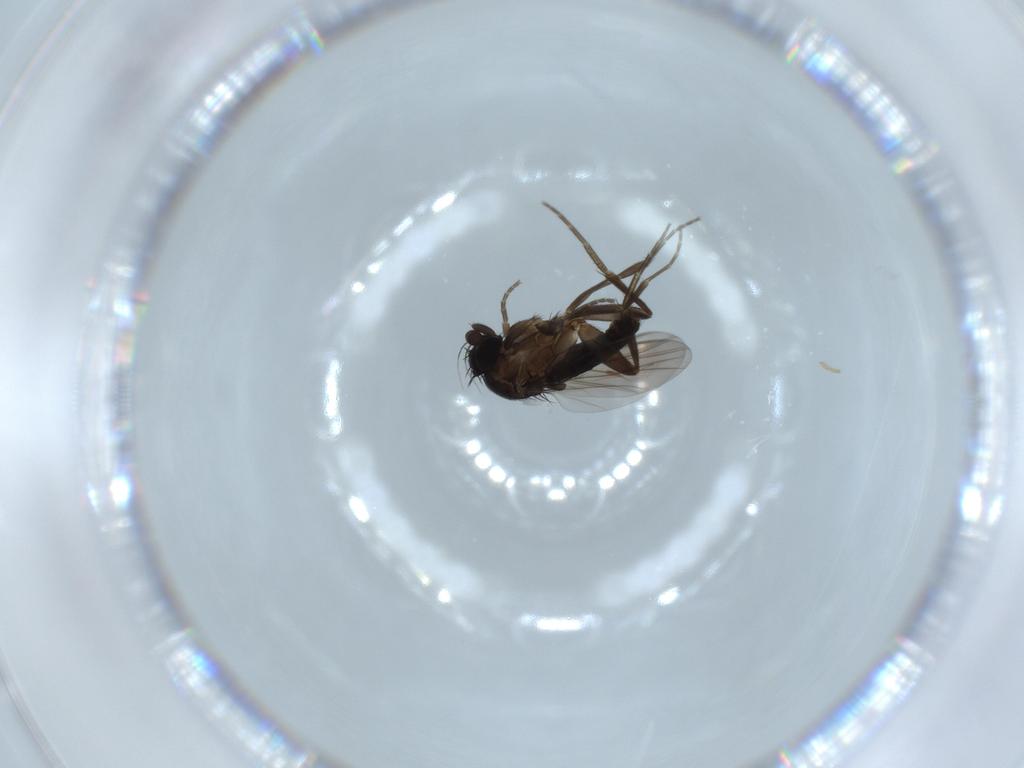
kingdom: Animalia
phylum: Arthropoda
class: Insecta
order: Diptera
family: Phoridae
